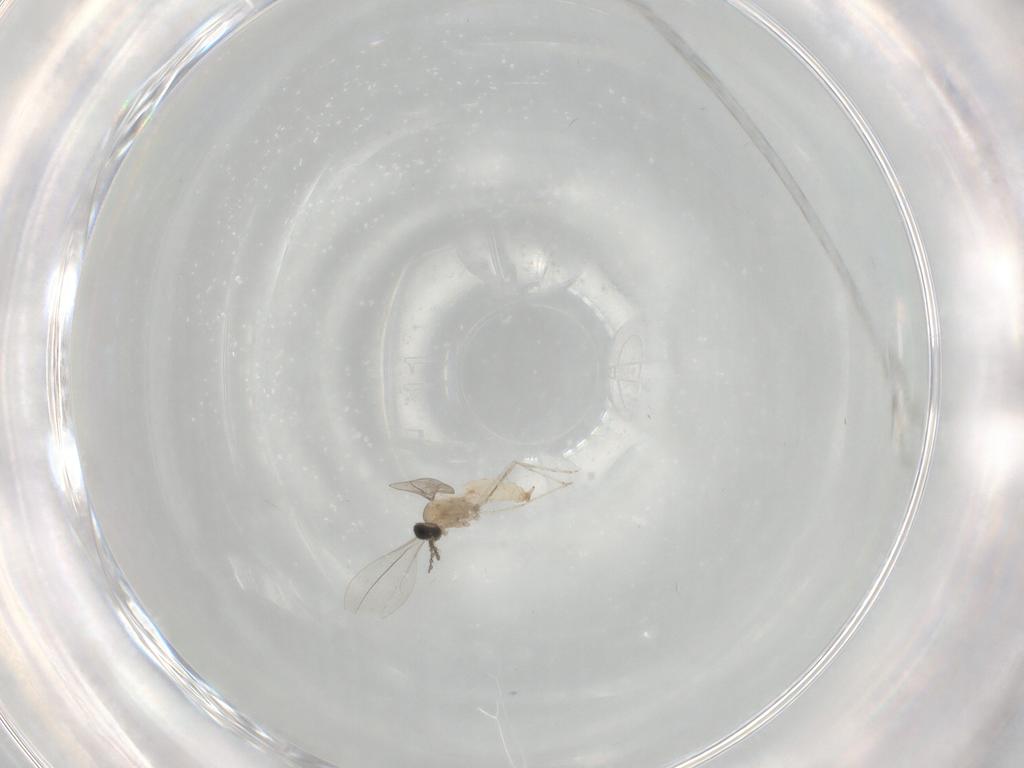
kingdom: Animalia
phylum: Arthropoda
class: Insecta
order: Diptera
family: Cecidomyiidae
